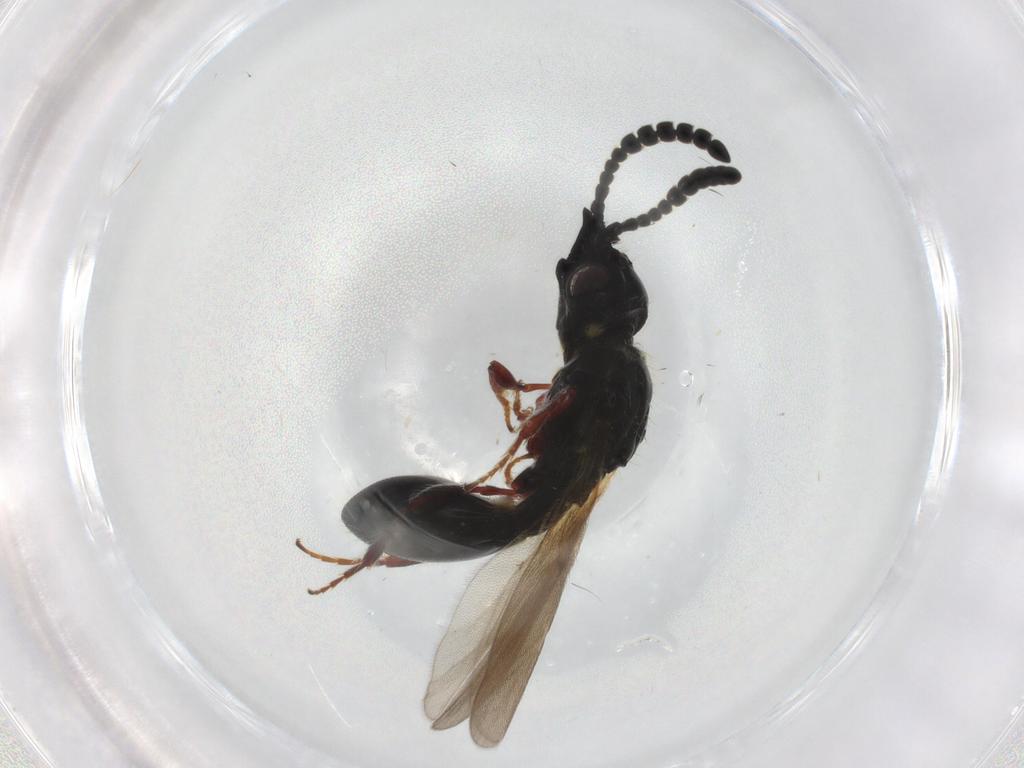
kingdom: Animalia
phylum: Arthropoda
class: Insecta
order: Hymenoptera
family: Diapriidae
